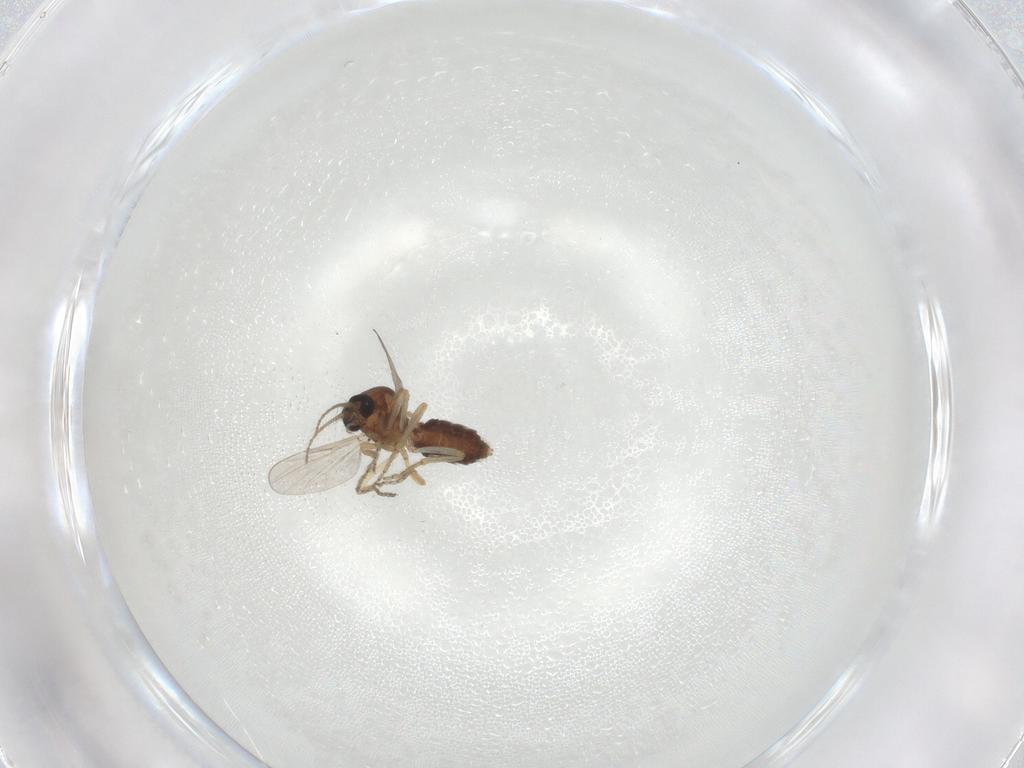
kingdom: Animalia
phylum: Arthropoda
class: Insecta
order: Diptera
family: Ceratopogonidae
